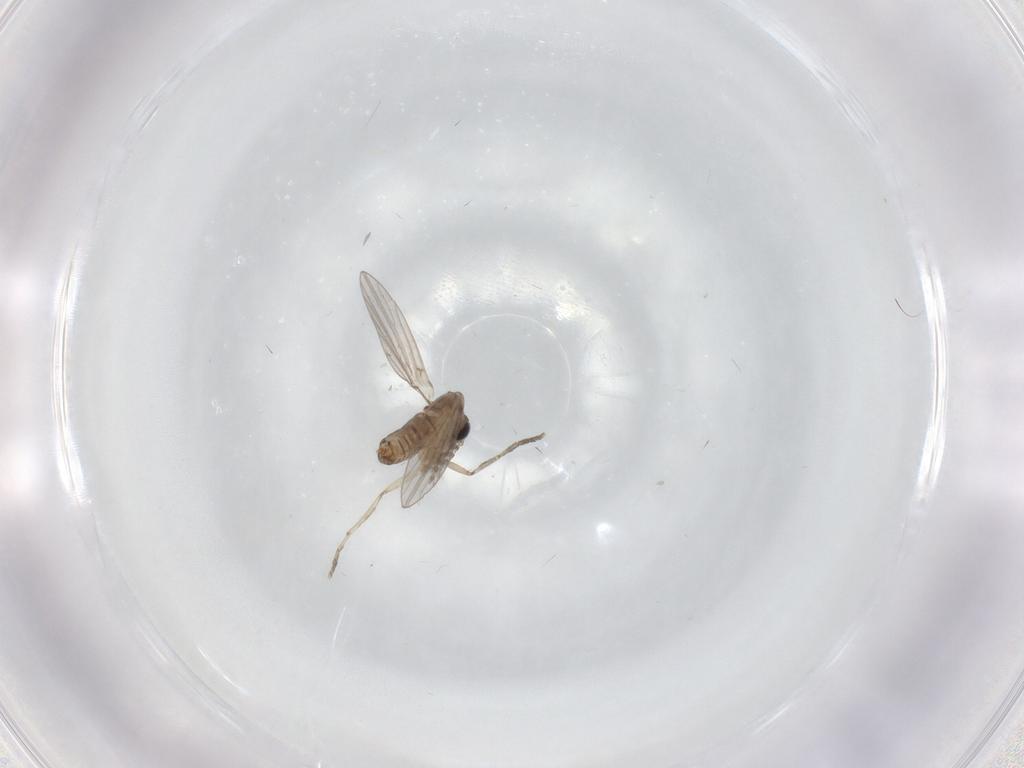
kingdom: Animalia
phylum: Arthropoda
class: Insecta
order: Diptera
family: Psychodidae
